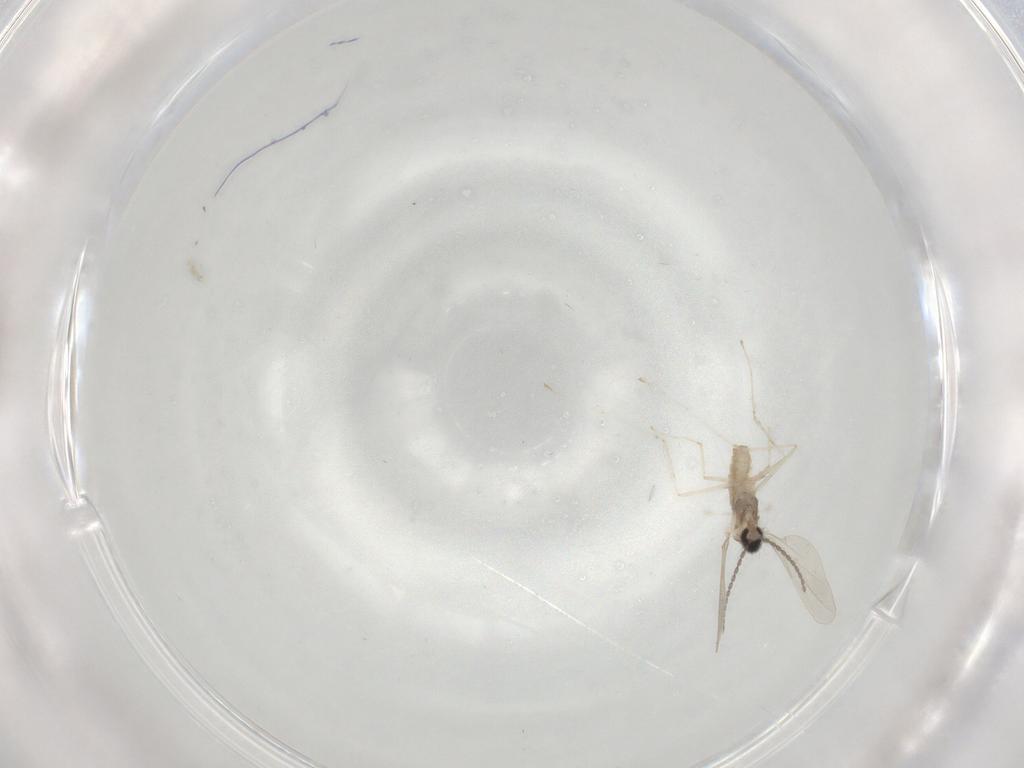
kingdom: Animalia
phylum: Arthropoda
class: Insecta
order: Diptera
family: Cecidomyiidae
